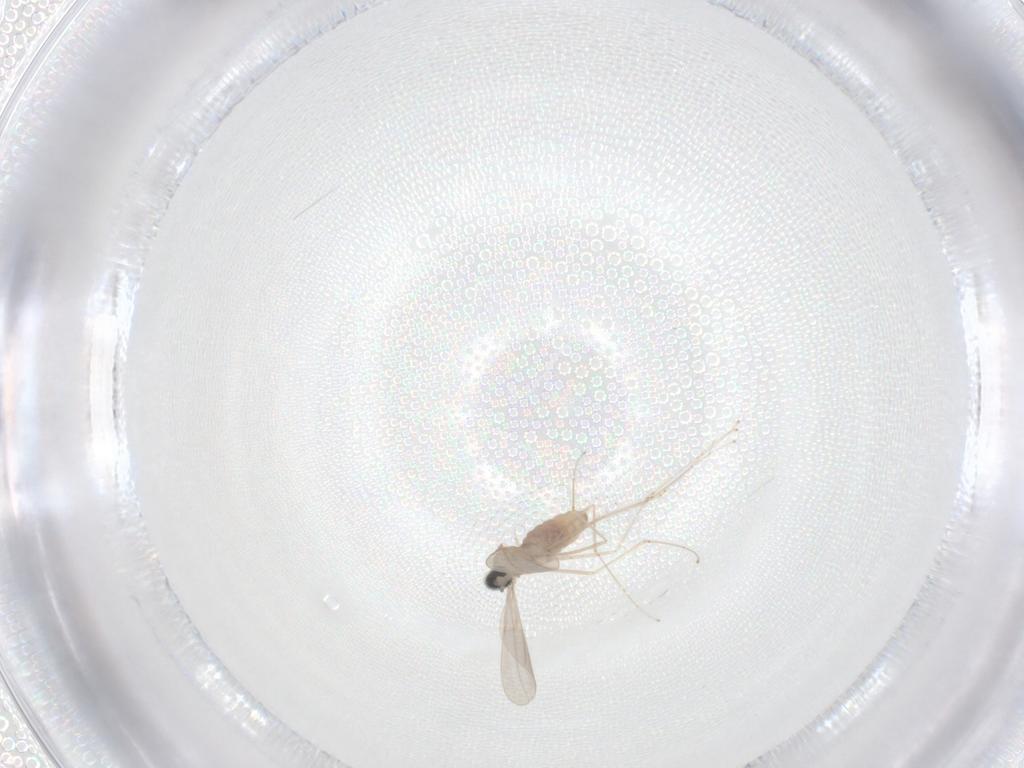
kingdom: Animalia
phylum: Arthropoda
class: Insecta
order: Diptera
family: Cecidomyiidae
